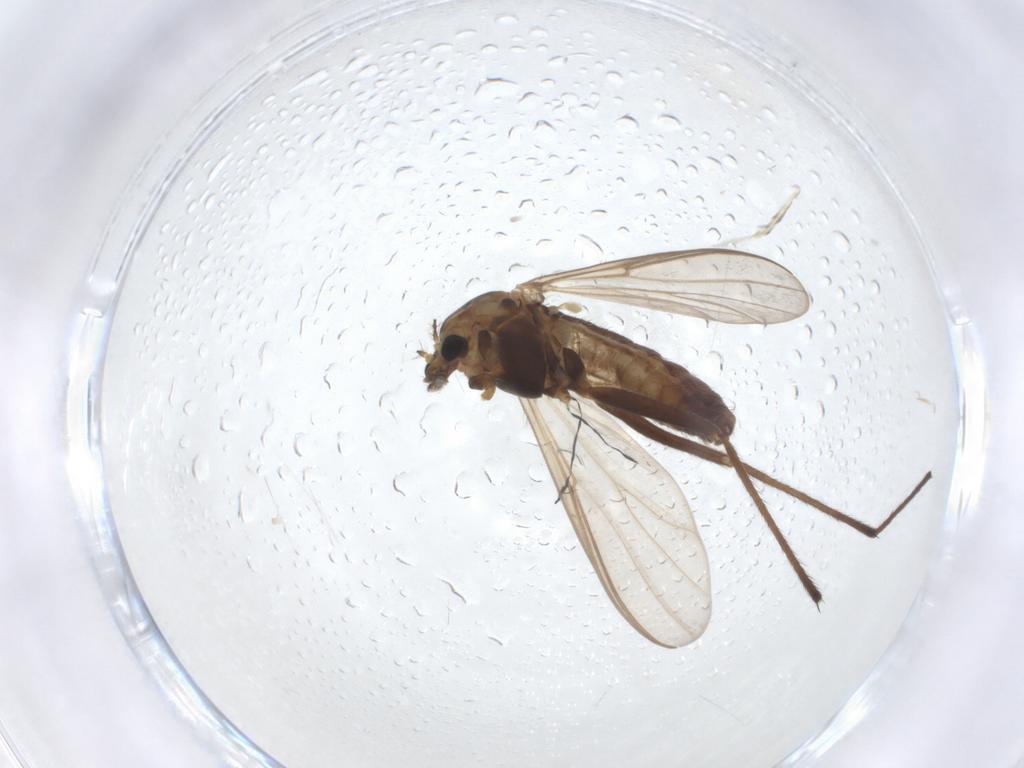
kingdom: Animalia
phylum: Arthropoda
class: Insecta
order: Diptera
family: Chironomidae
